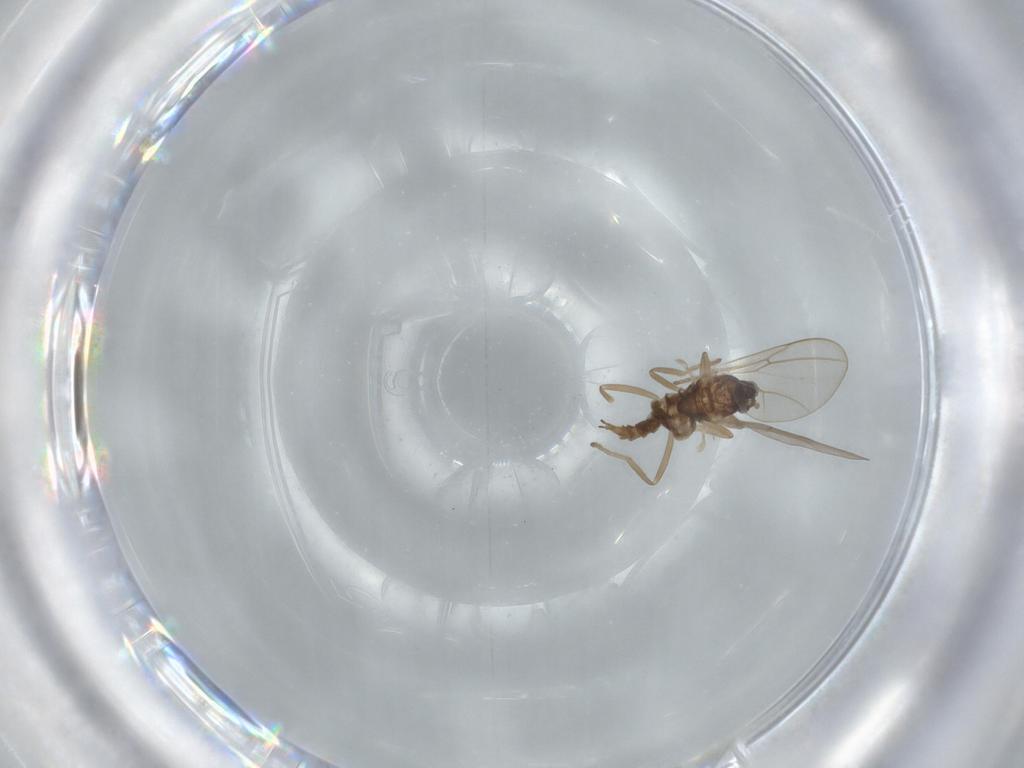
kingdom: Animalia
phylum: Arthropoda
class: Insecta
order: Diptera
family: Cecidomyiidae
